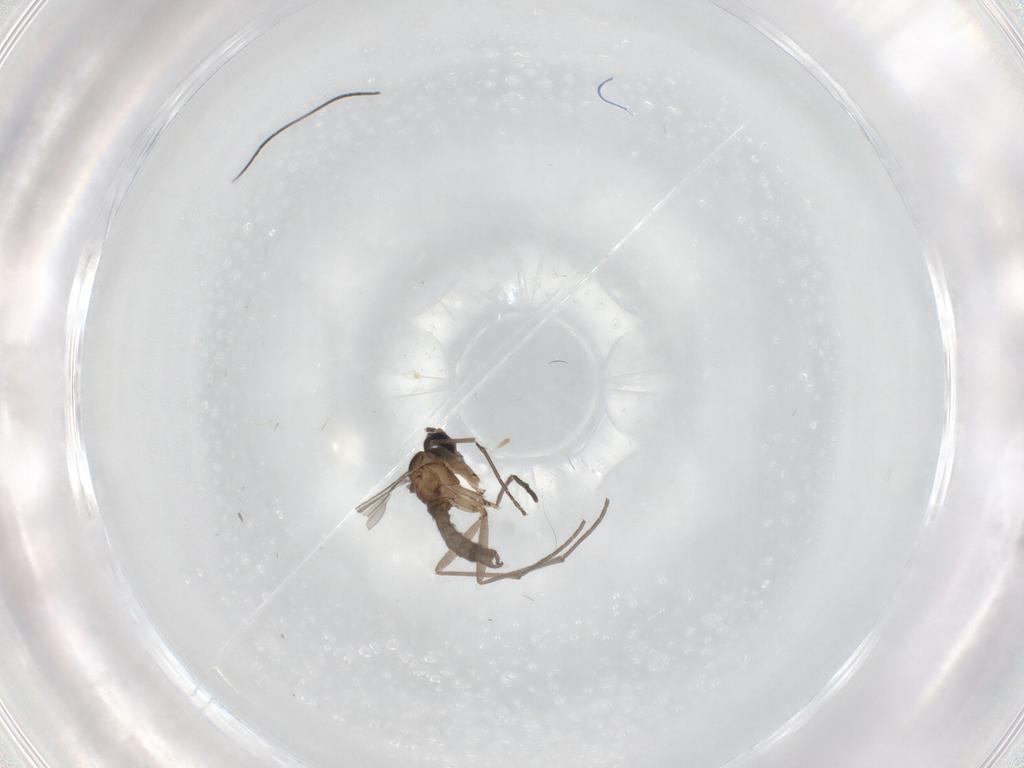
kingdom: Animalia
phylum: Arthropoda
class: Insecta
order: Diptera
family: Sciaridae
